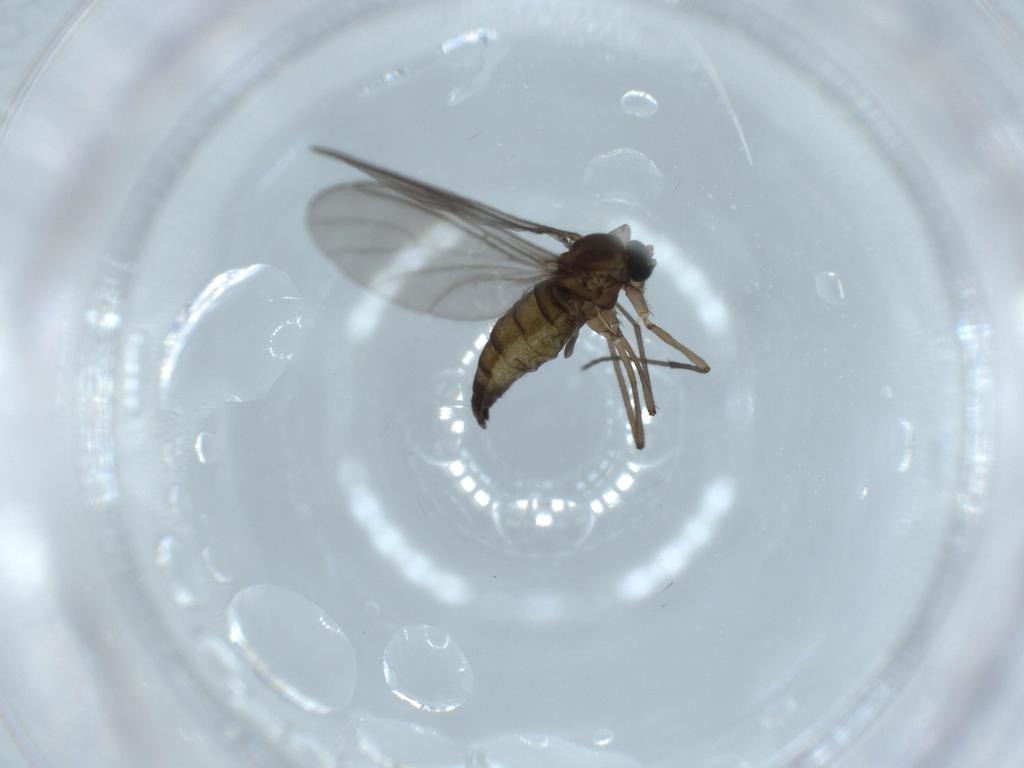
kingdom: Animalia
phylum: Arthropoda
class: Insecta
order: Diptera
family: Sciaridae
